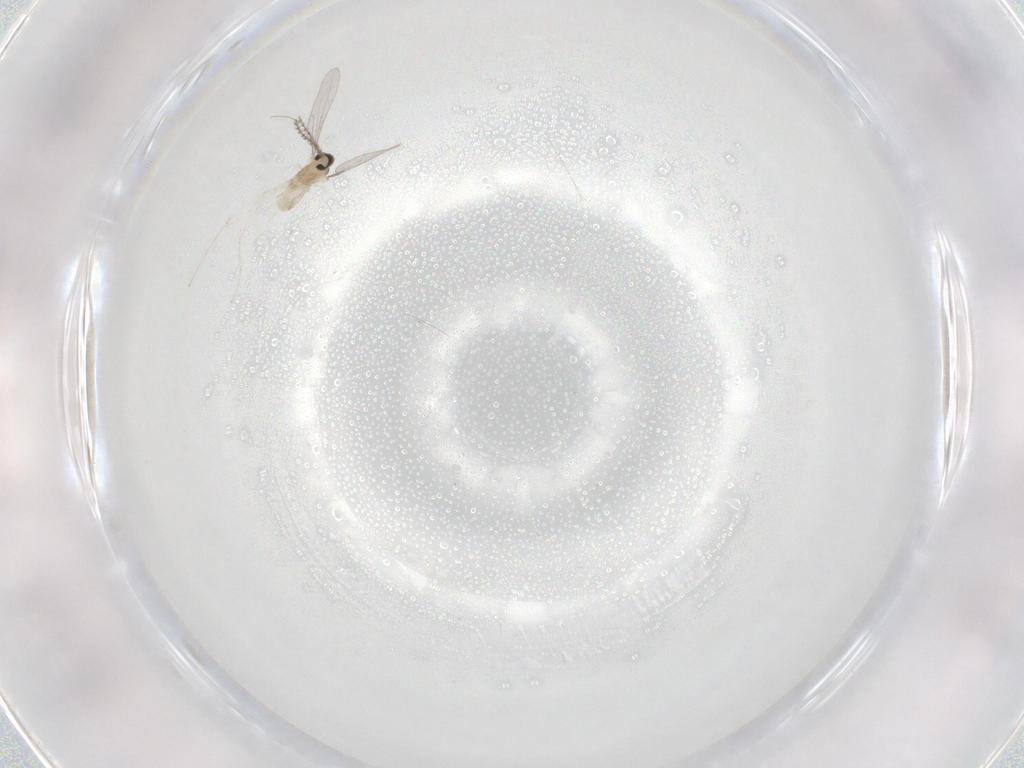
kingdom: Animalia
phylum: Arthropoda
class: Insecta
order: Diptera
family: Cecidomyiidae
